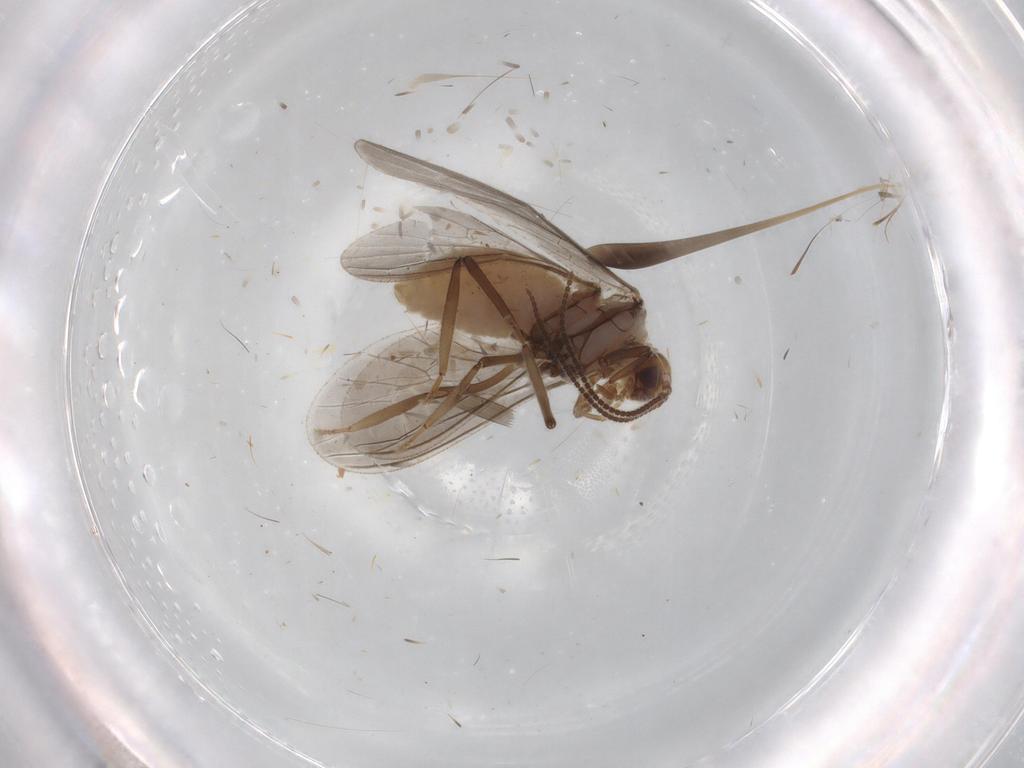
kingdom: Animalia
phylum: Arthropoda
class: Insecta
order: Neuroptera
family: Coniopterygidae
